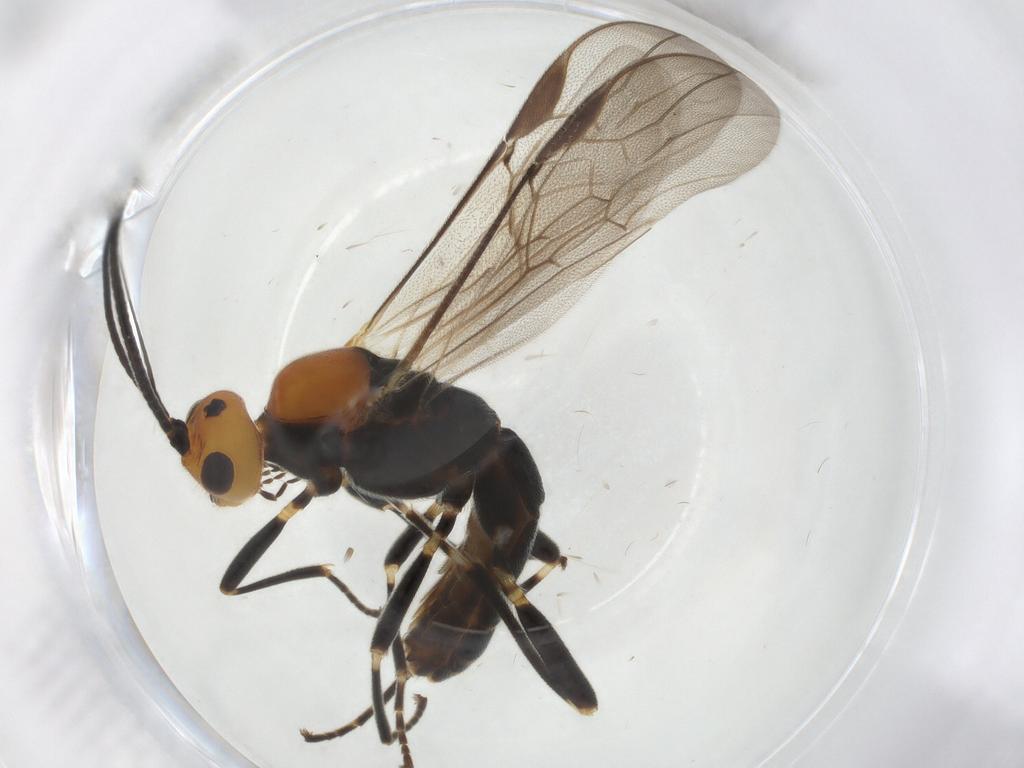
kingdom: Animalia
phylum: Arthropoda
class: Insecta
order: Hymenoptera
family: Braconidae
